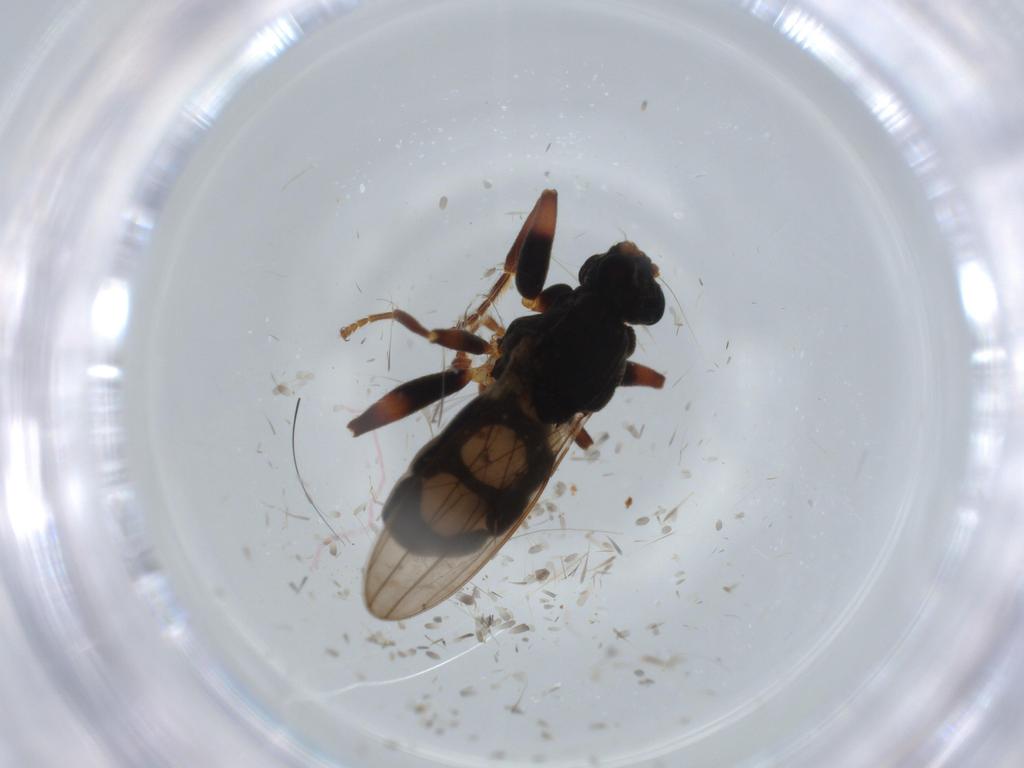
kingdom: Animalia
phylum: Arthropoda
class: Insecta
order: Diptera
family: Sphaeroceridae
